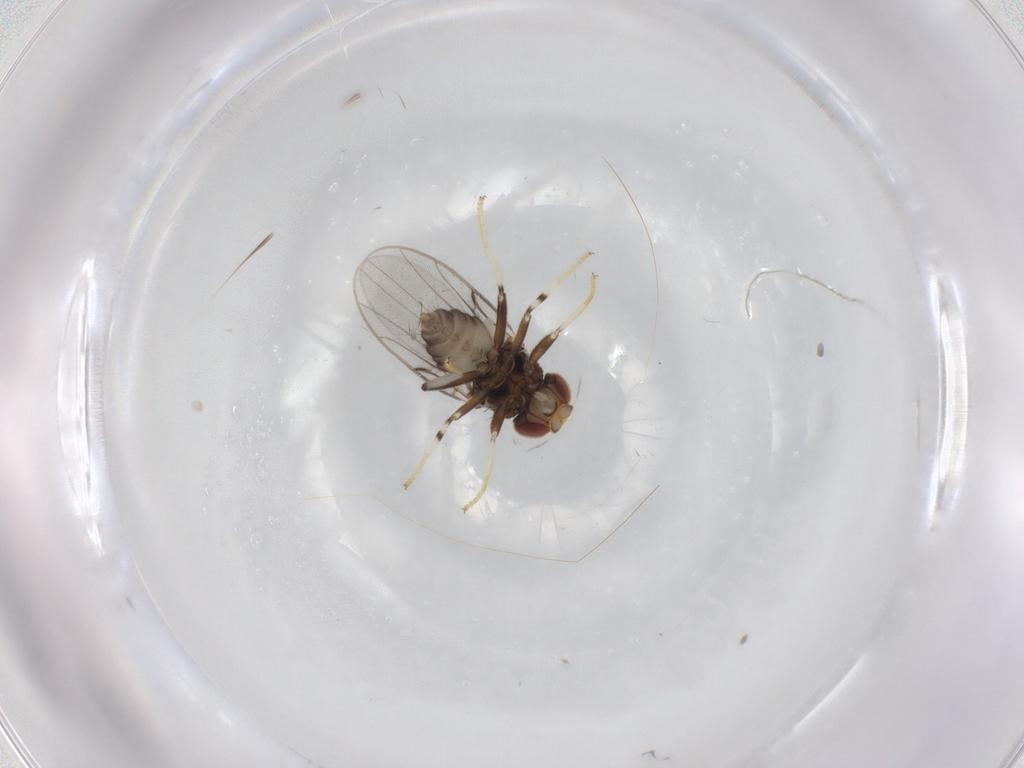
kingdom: Animalia
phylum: Arthropoda
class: Insecta
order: Diptera
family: Chloropidae
